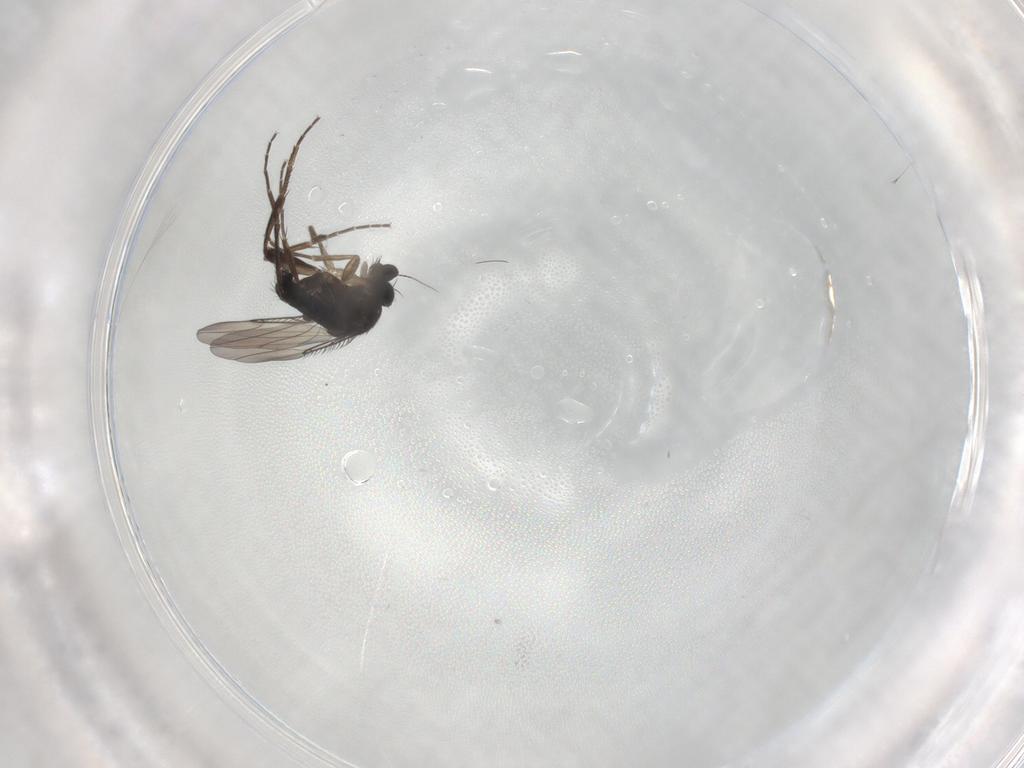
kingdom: Animalia
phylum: Arthropoda
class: Insecta
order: Diptera
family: Phoridae
